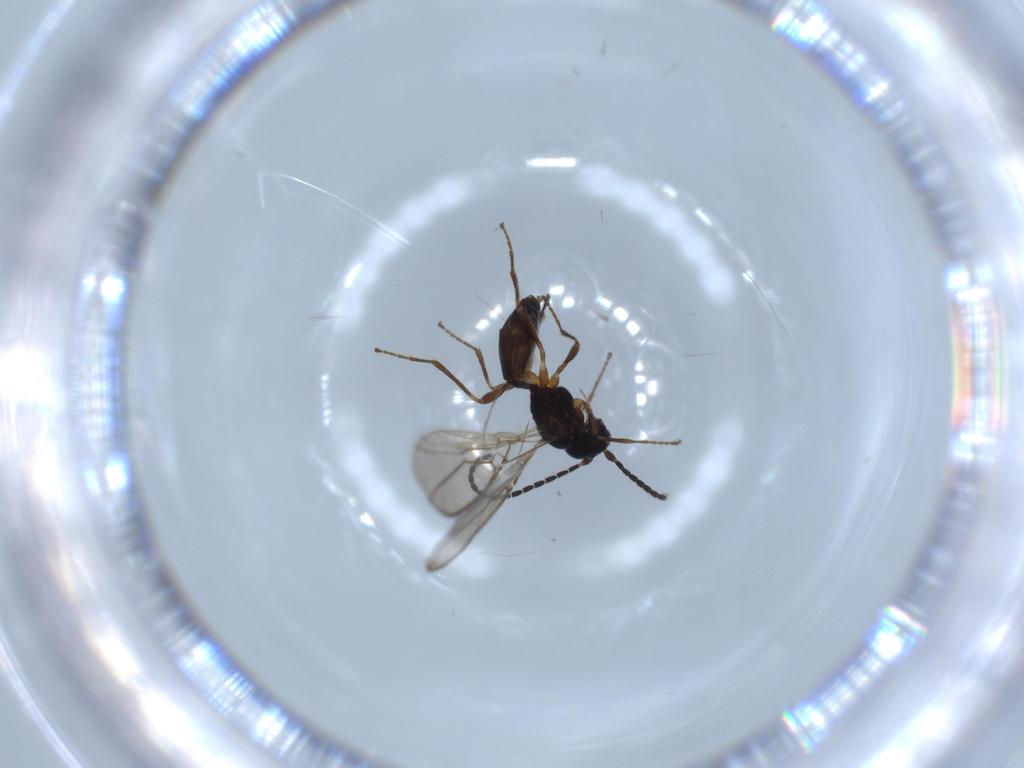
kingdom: Animalia
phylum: Arthropoda
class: Insecta
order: Hymenoptera
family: Braconidae
